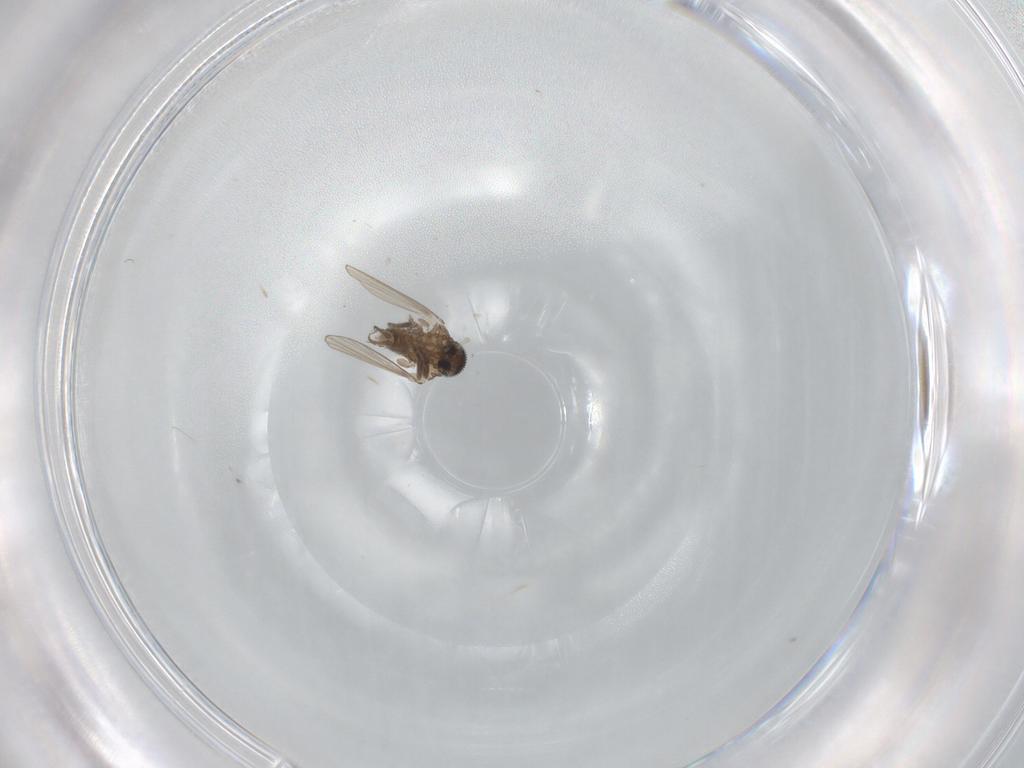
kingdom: Animalia
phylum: Arthropoda
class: Insecta
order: Diptera
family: Psychodidae
